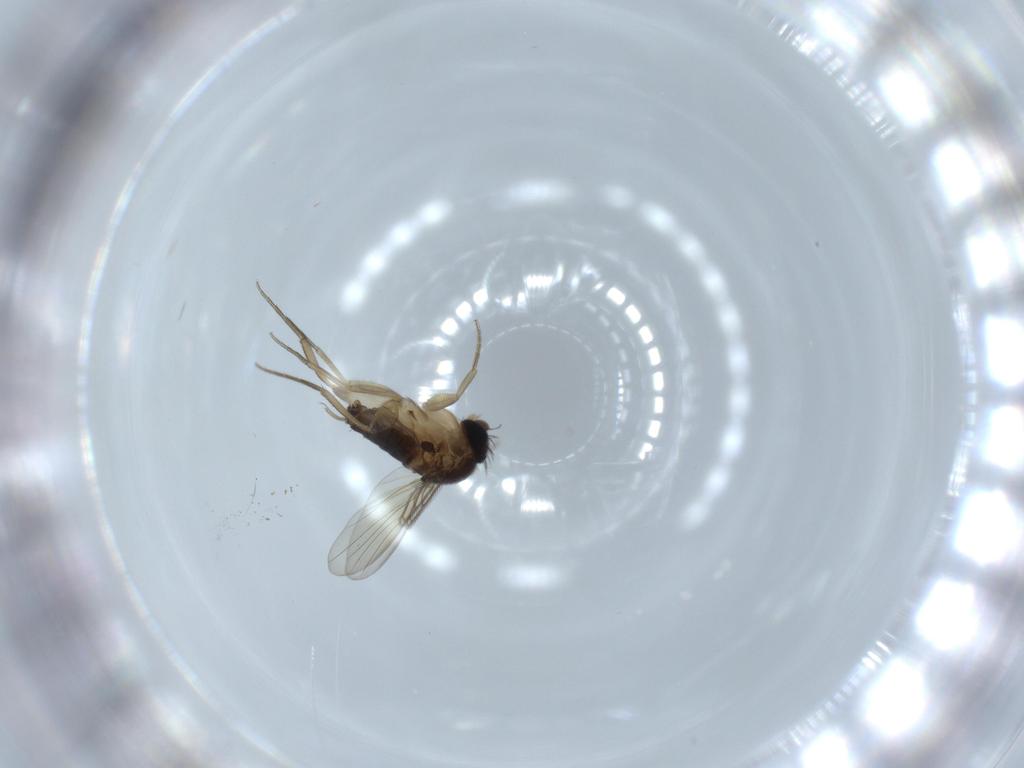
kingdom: Animalia
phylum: Arthropoda
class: Insecta
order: Diptera
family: Phoridae
